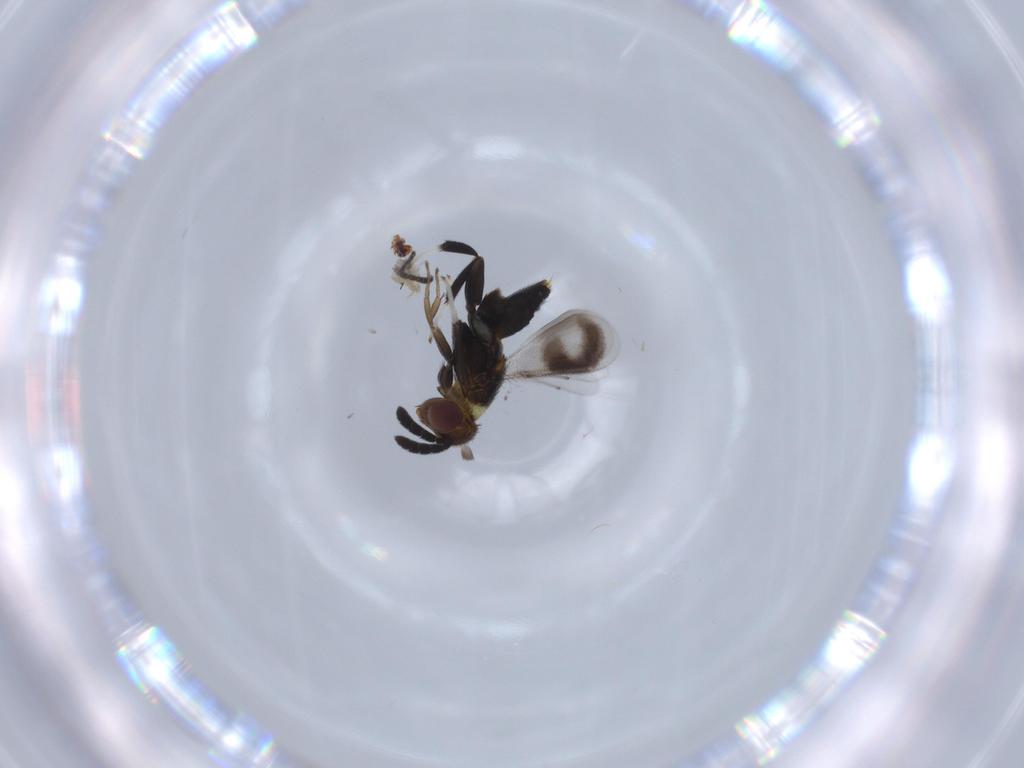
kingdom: Animalia
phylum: Arthropoda
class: Insecta
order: Hymenoptera
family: Aphelinidae
